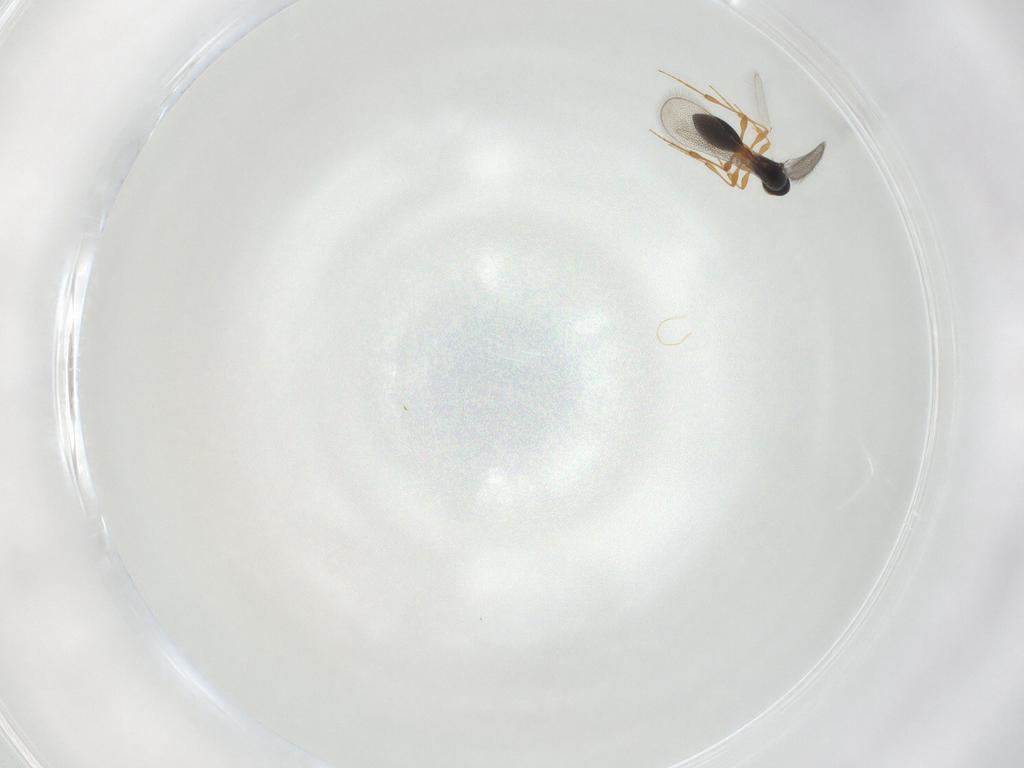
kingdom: Animalia
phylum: Arthropoda
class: Insecta
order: Hymenoptera
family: Platygastridae
